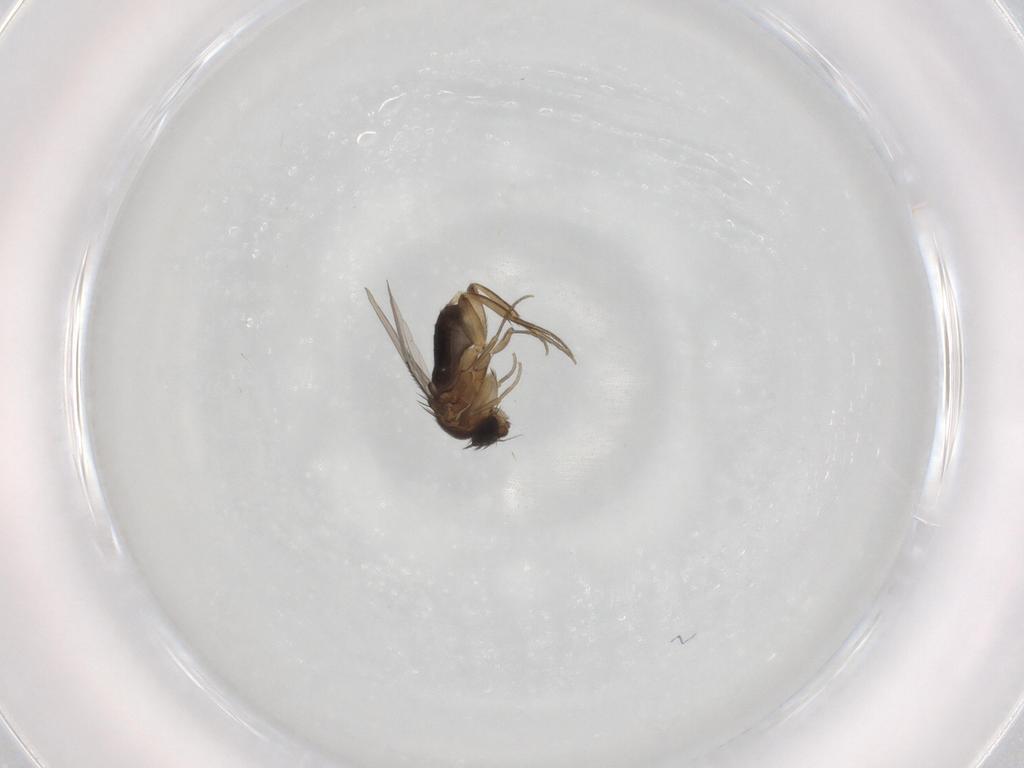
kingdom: Animalia
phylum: Arthropoda
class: Insecta
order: Diptera
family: Phoridae
